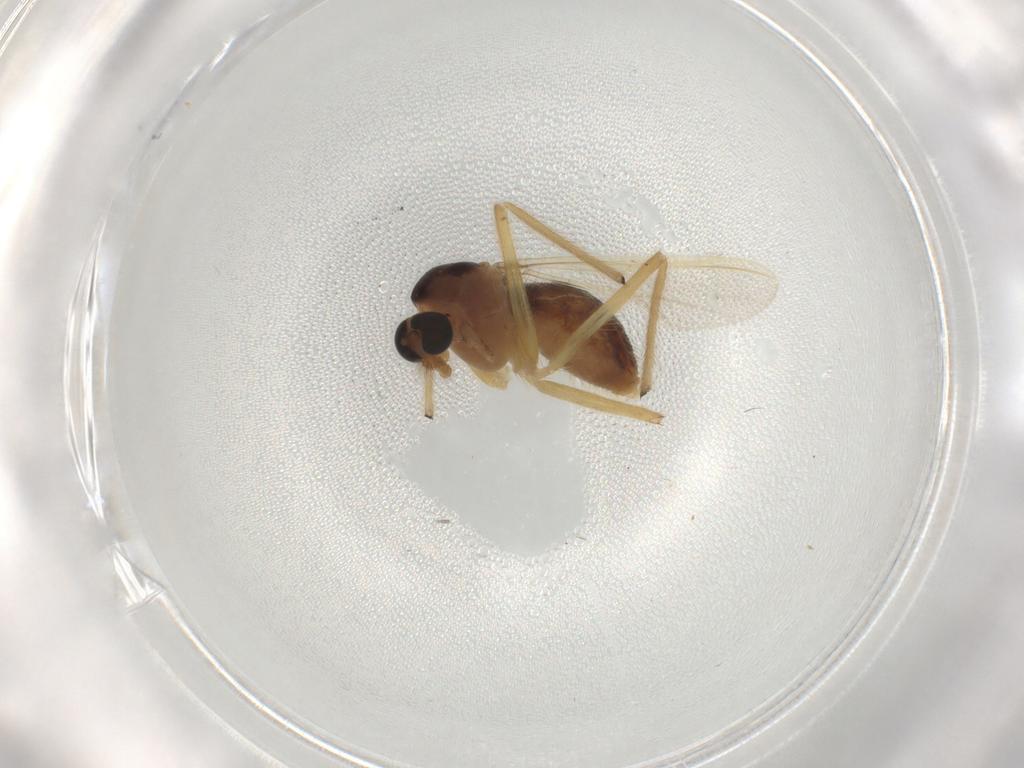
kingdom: Animalia
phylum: Arthropoda
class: Insecta
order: Diptera
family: Chironomidae
